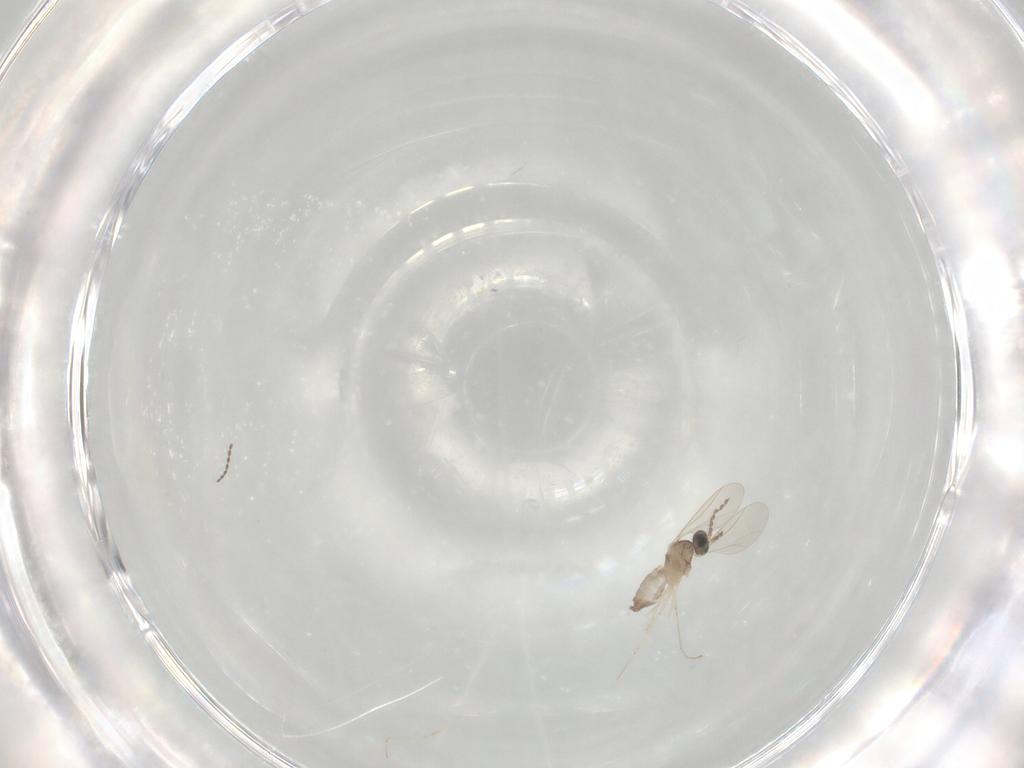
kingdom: Animalia
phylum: Arthropoda
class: Insecta
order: Diptera
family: Cecidomyiidae
